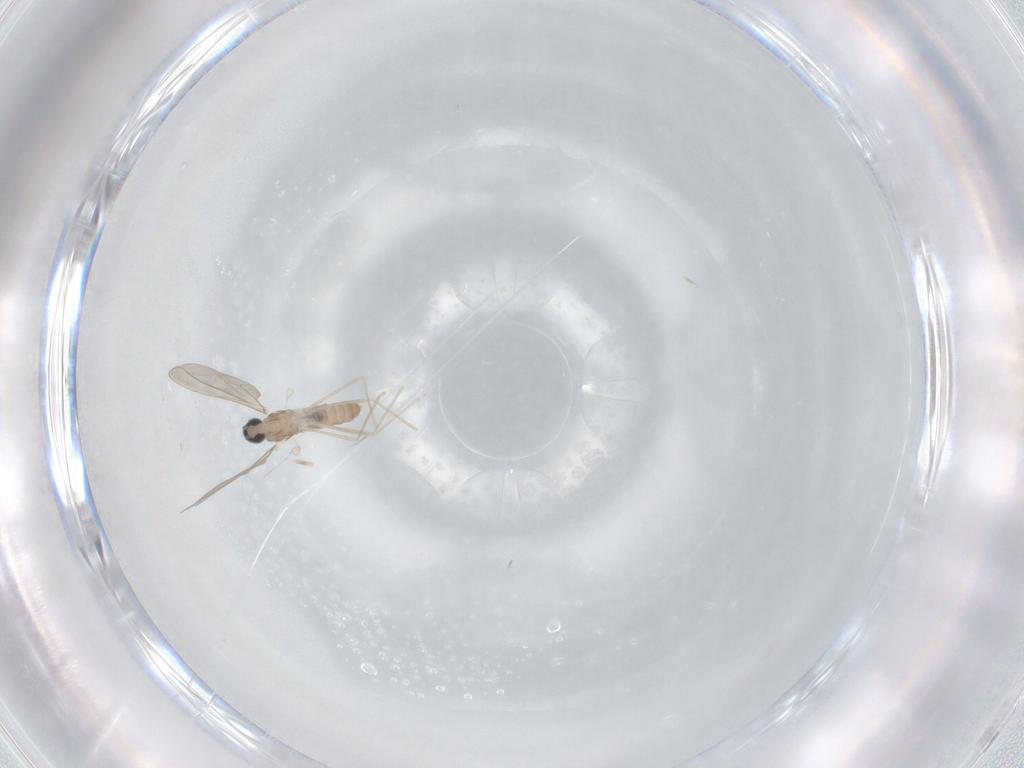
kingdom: Animalia
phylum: Arthropoda
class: Insecta
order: Diptera
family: Cecidomyiidae
